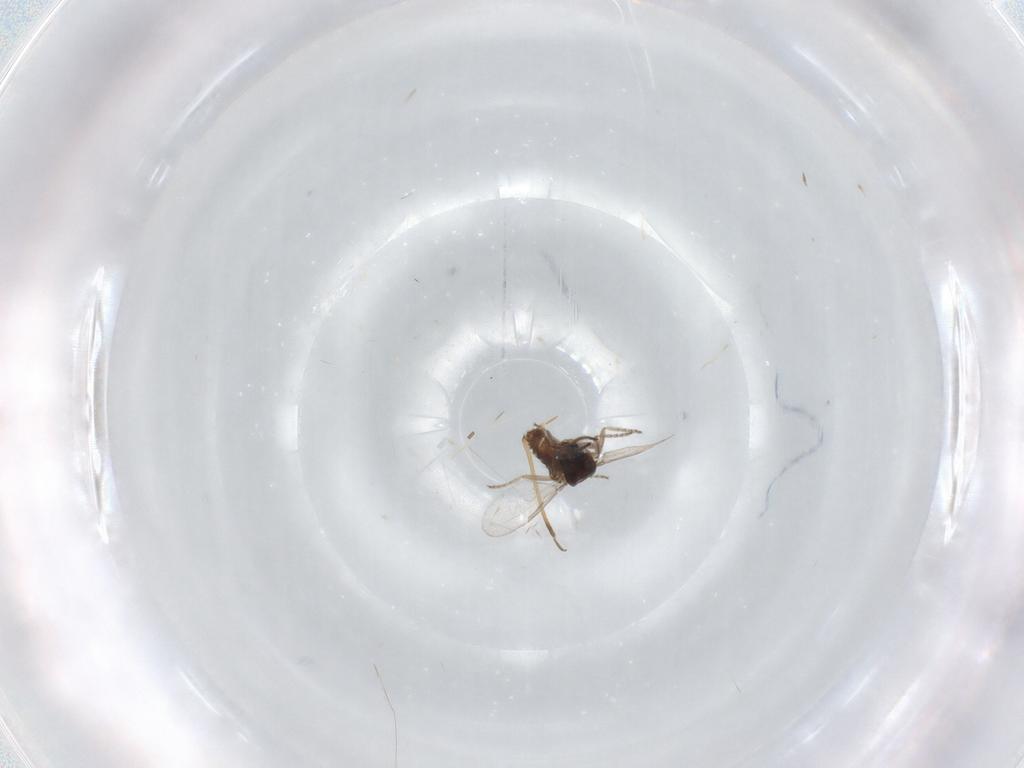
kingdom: Animalia
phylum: Arthropoda
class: Insecta
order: Diptera
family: Ceratopogonidae
